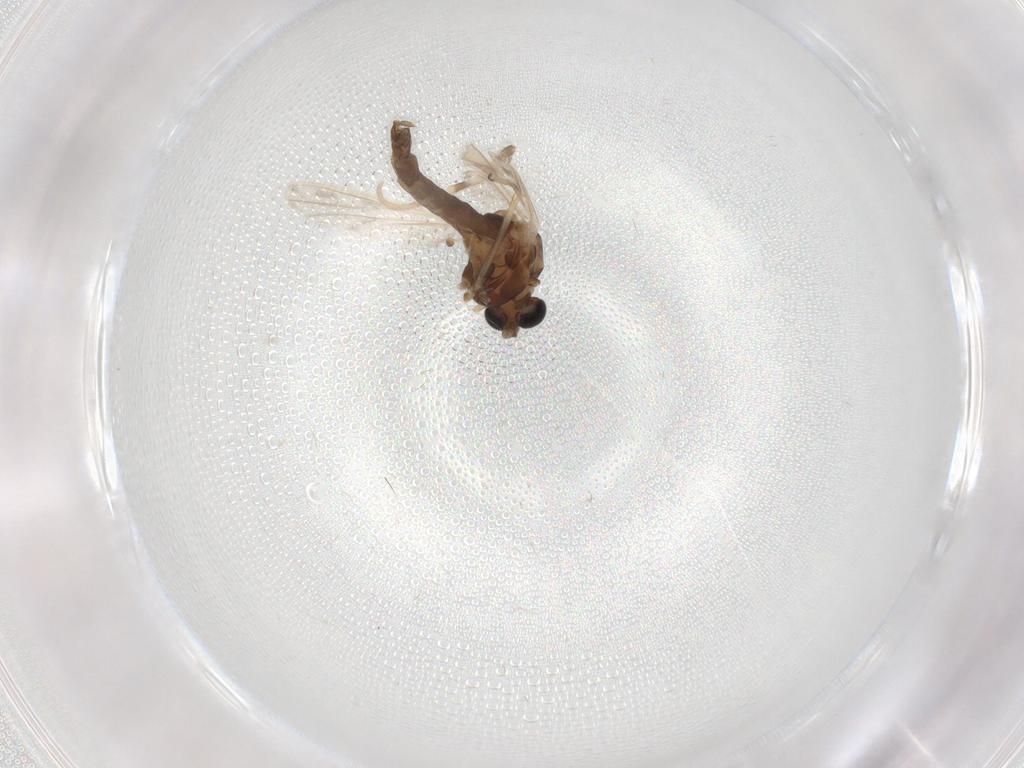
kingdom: Animalia
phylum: Arthropoda
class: Insecta
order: Diptera
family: Chironomidae
